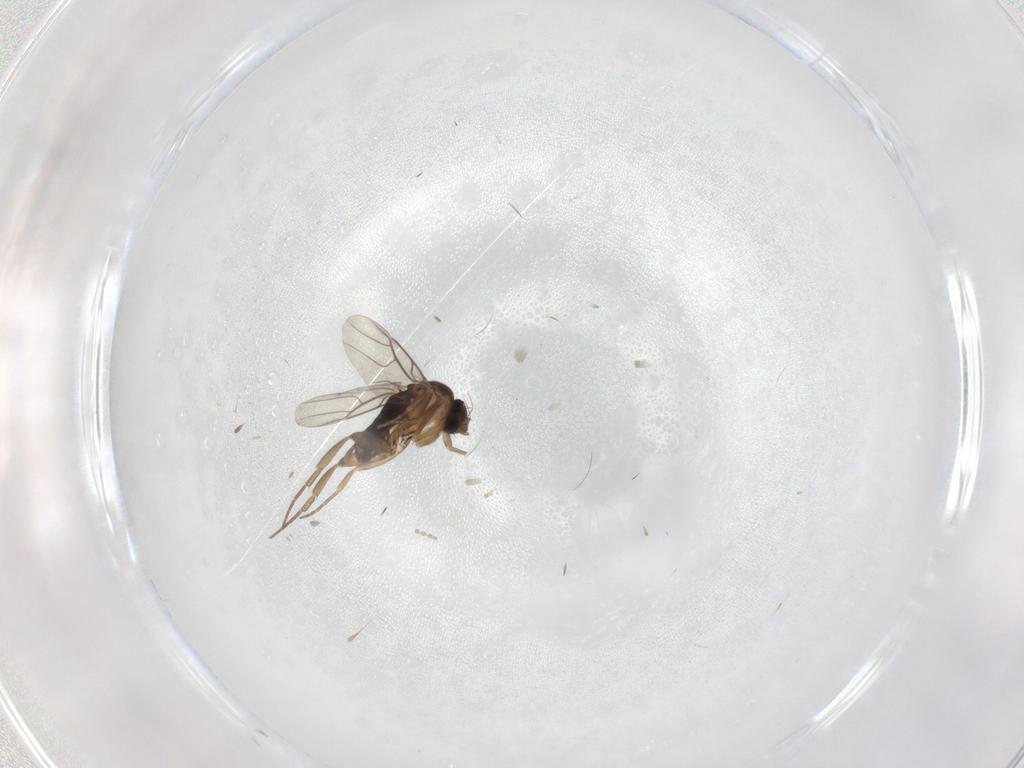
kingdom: Animalia
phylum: Arthropoda
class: Insecta
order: Diptera
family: Phoridae
